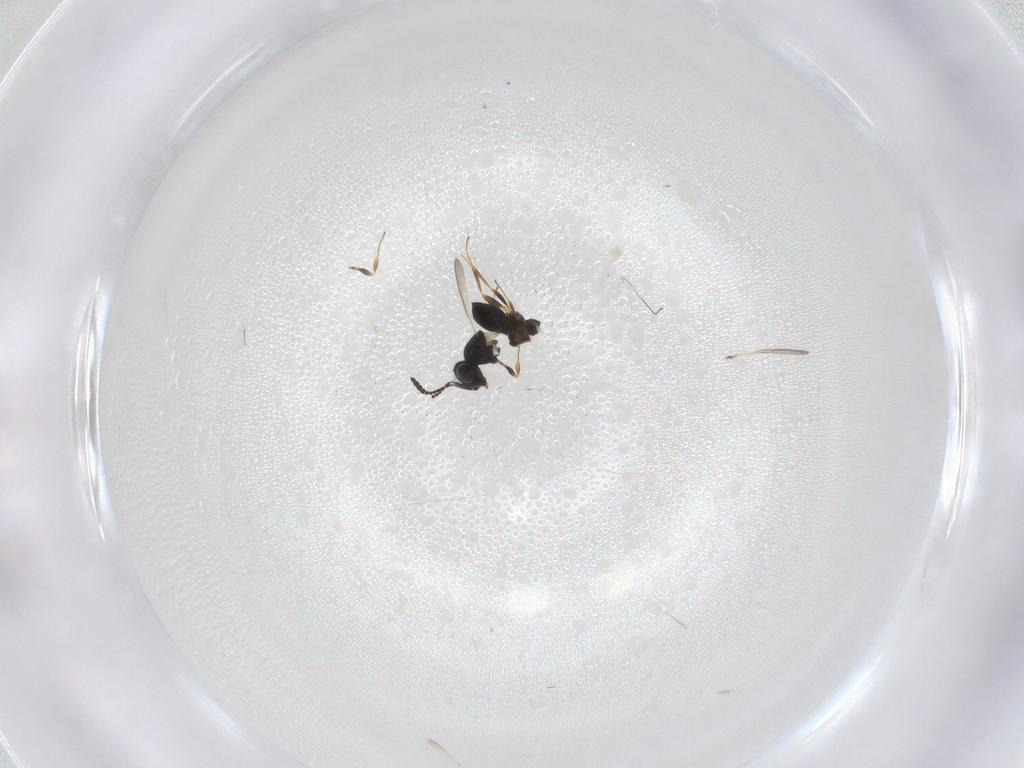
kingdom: Animalia
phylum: Arthropoda
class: Insecta
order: Hymenoptera
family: Scelionidae
